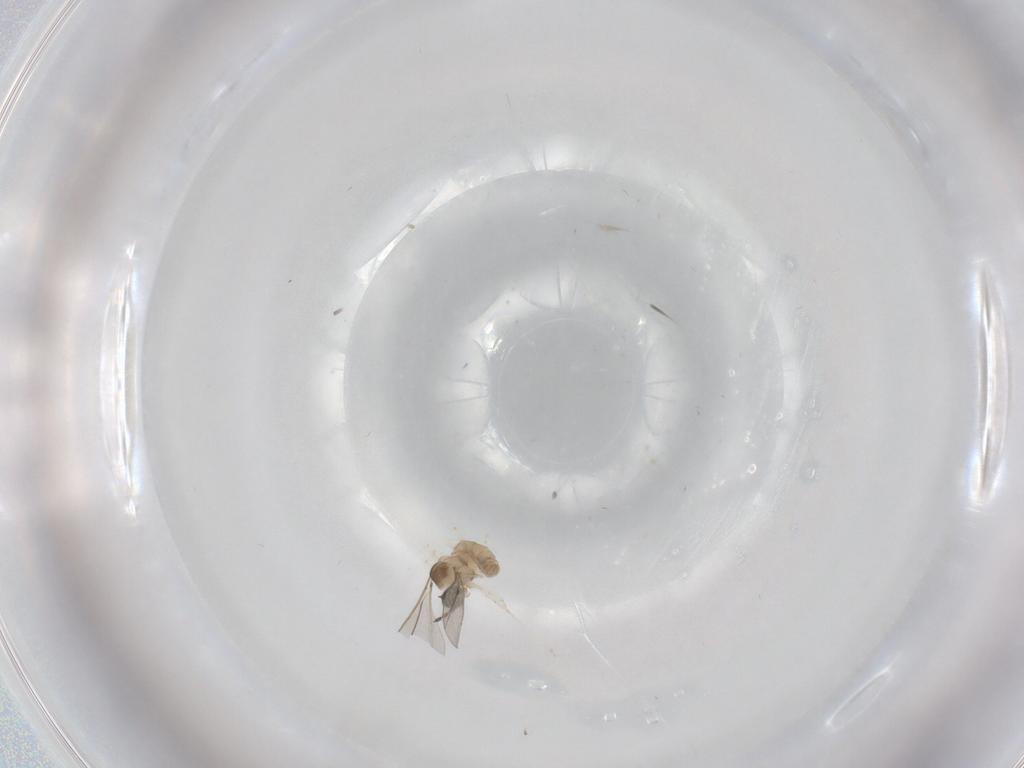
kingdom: Animalia
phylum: Arthropoda
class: Insecta
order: Diptera
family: Cecidomyiidae
